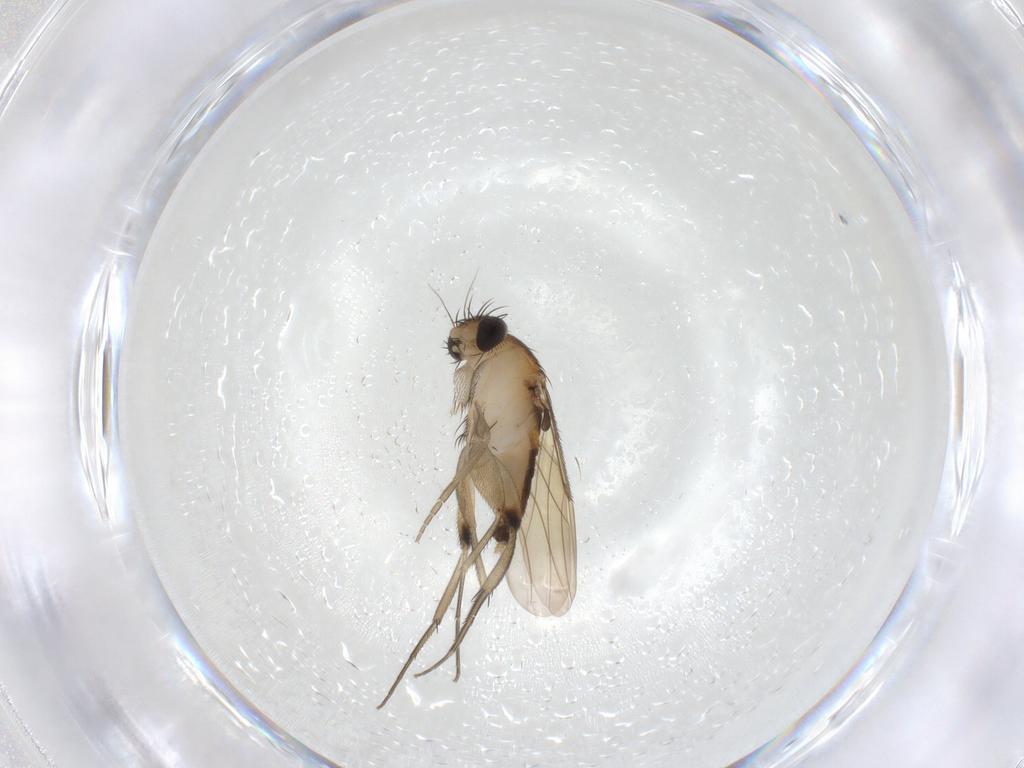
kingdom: Animalia
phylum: Arthropoda
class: Insecta
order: Diptera
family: Phoridae
